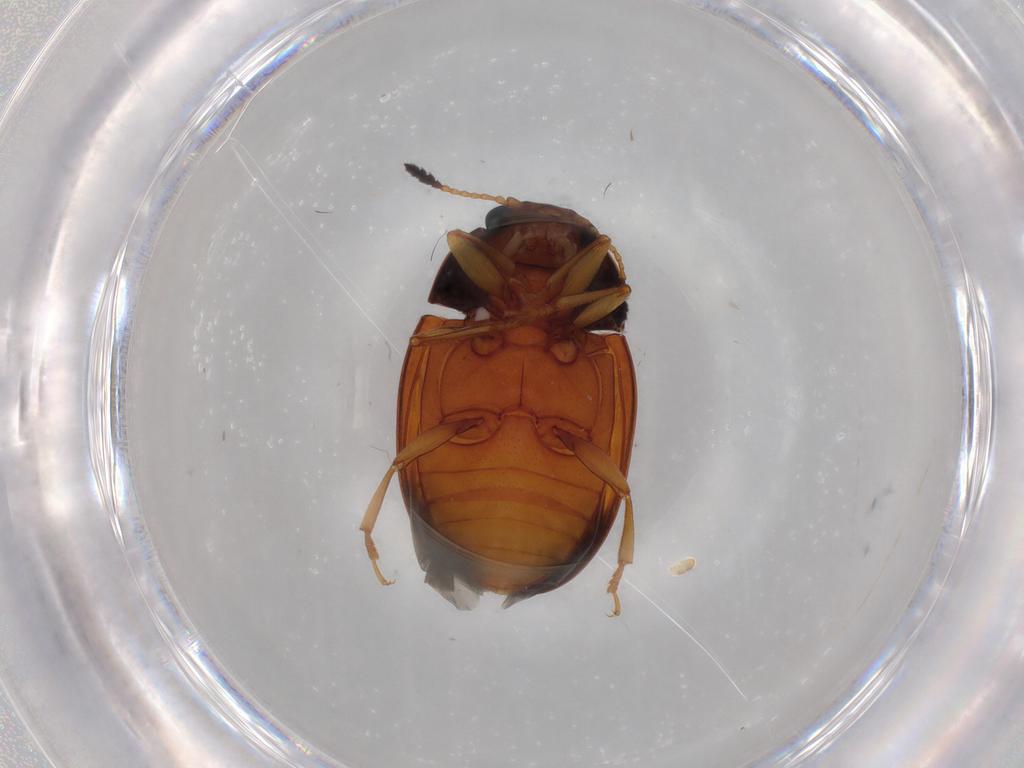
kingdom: Animalia
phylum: Arthropoda
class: Insecta
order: Coleoptera
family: Erotylidae
